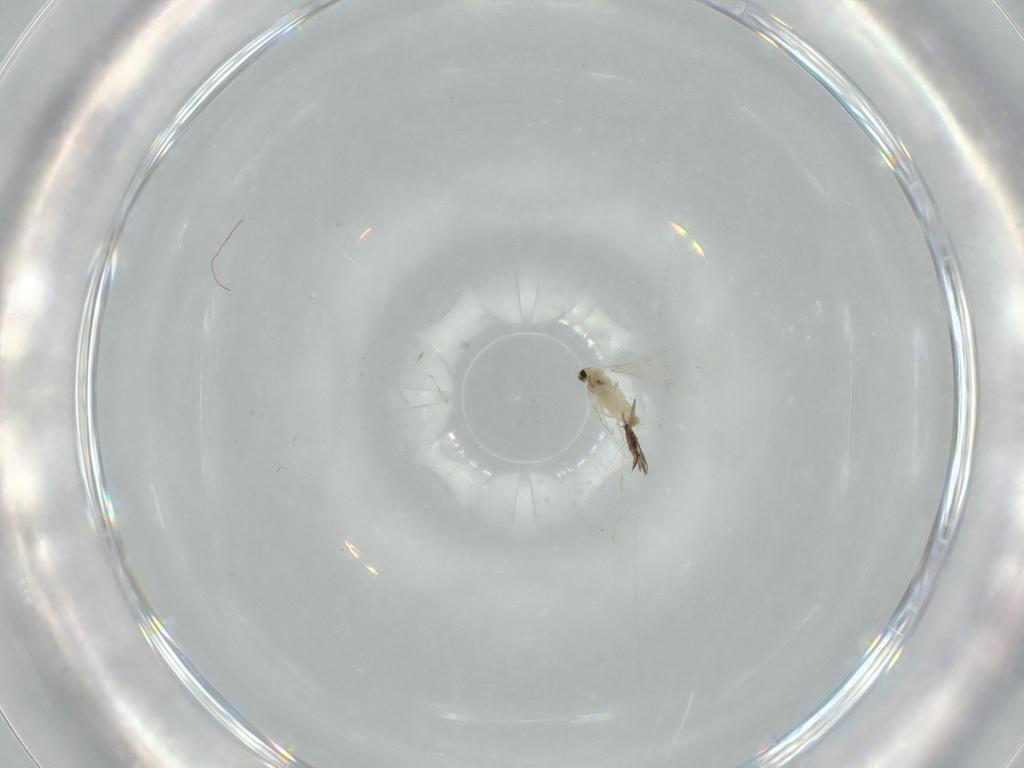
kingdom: Animalia
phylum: Arthropoda
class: Insecta
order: Diptera
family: Cecidomyiidae
